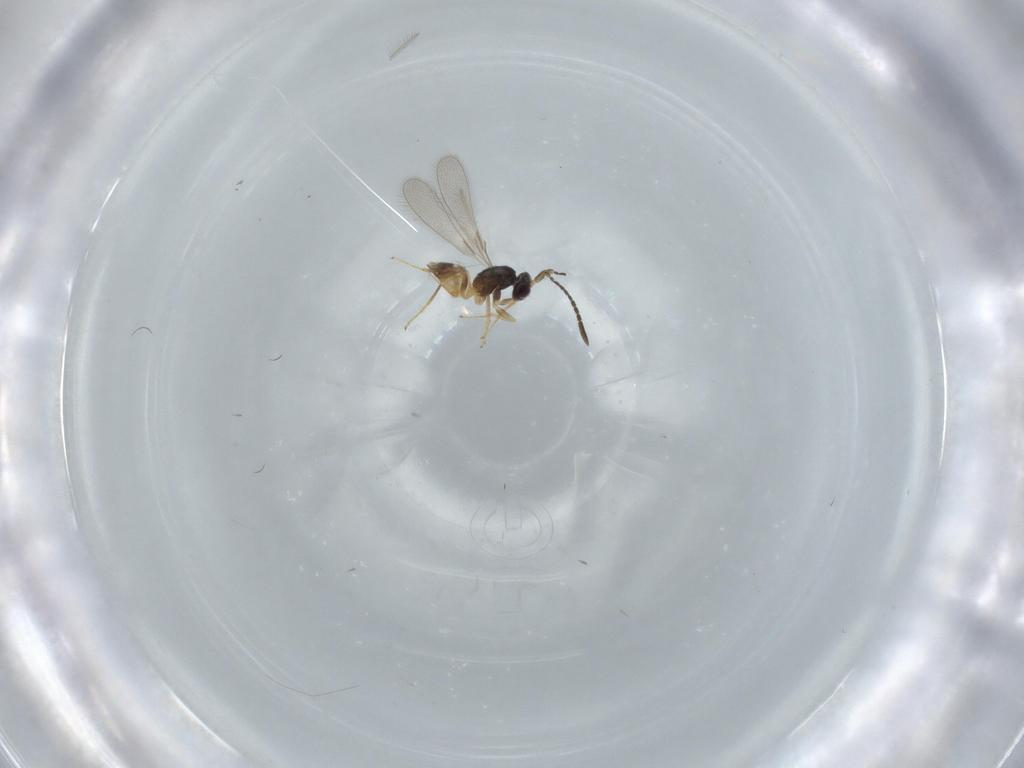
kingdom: Animalia
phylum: Arthropoda
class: Insecta
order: Hymenoptera
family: Mymaridae
